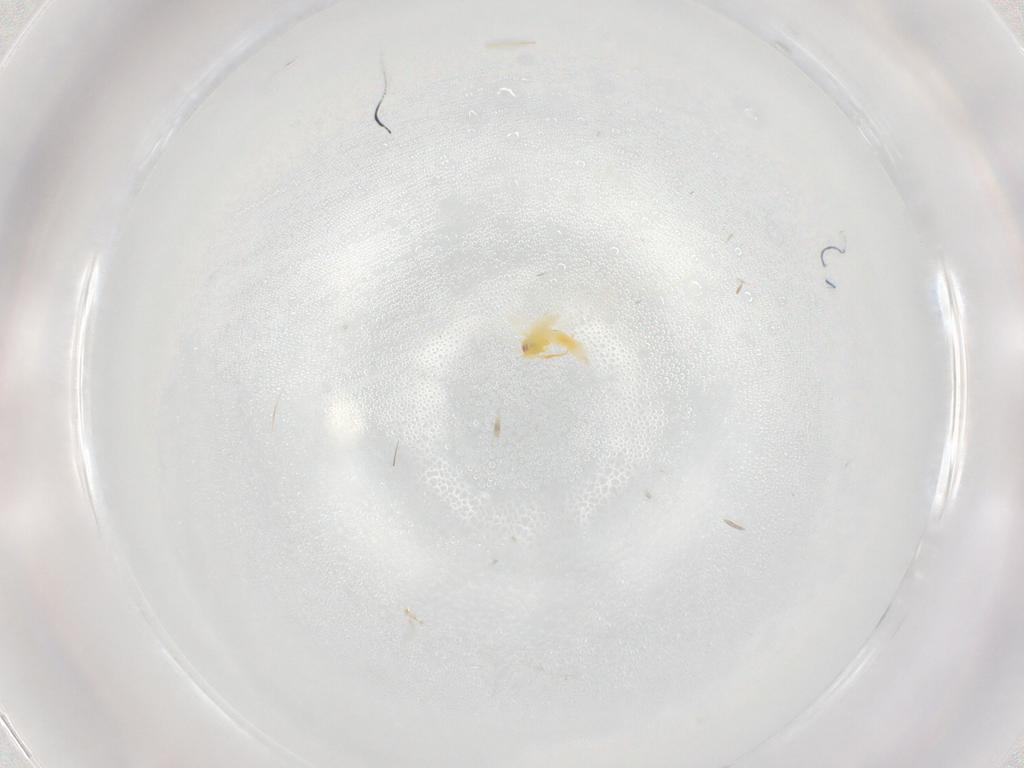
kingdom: Animalia
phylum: Arthropoda
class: Insecta
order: Hemiptera
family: Aleyrodidae
